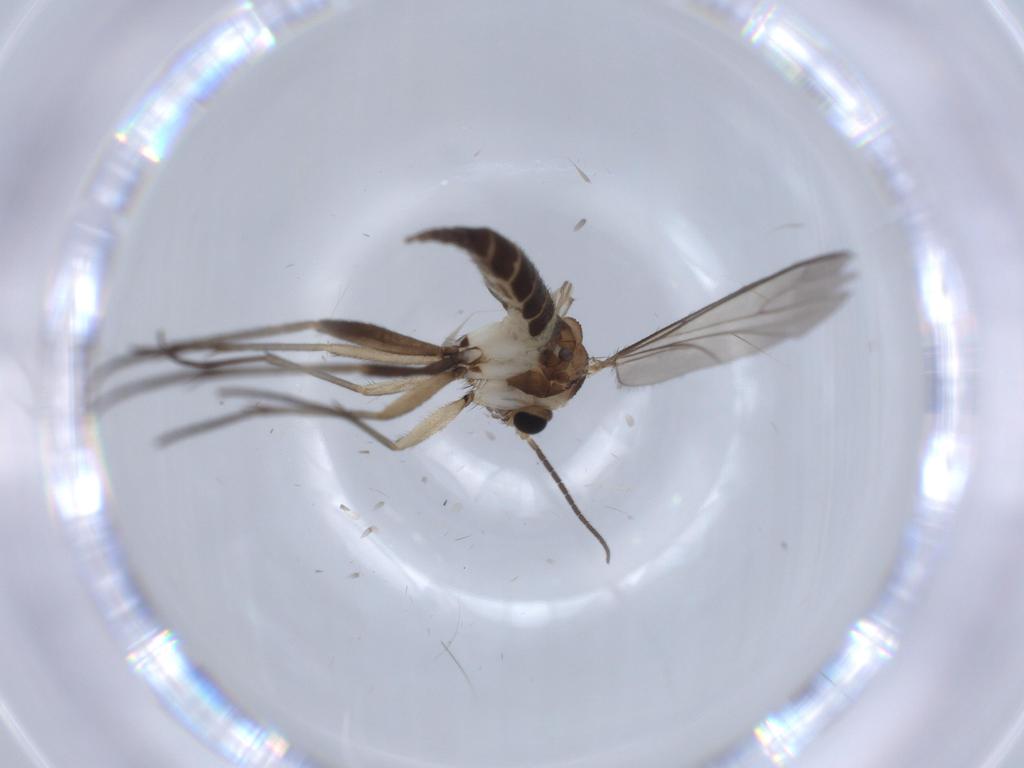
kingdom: Animalia
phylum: Arthropoda
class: Insecta
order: Diptera
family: Sciaridae
